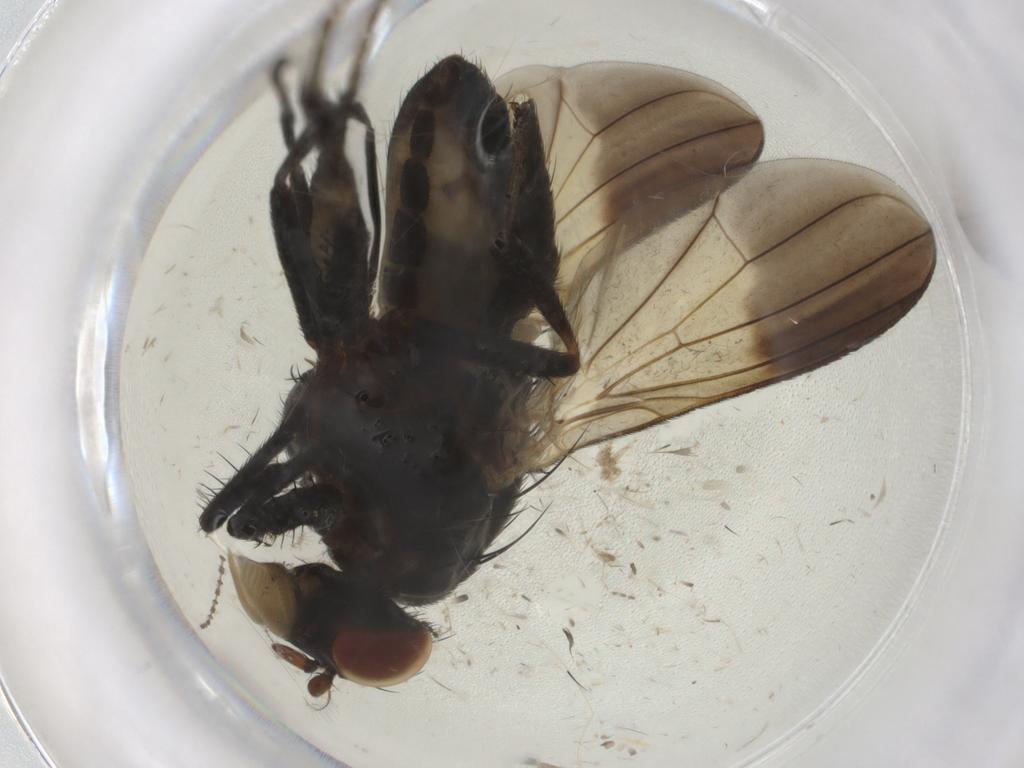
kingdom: Animalia
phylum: Arthropoda
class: Insecta
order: Diptera
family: Lauxaniidae
